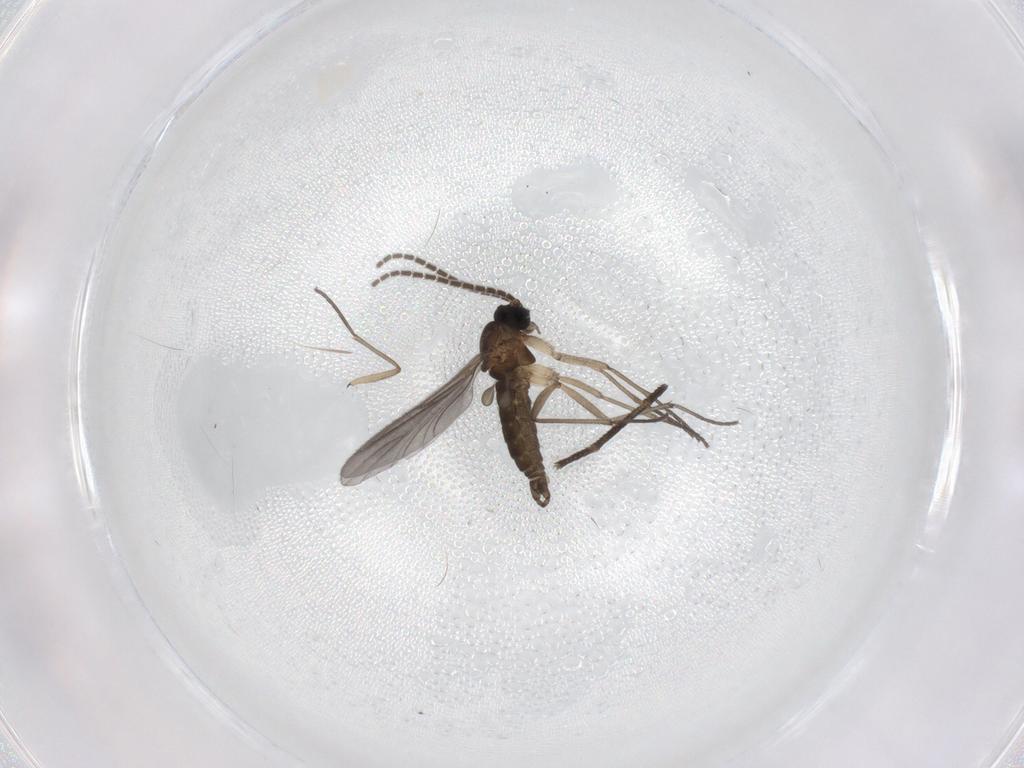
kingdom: Animalia
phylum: Arthropoda
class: Insecta
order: Diptera
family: Sciaridae
